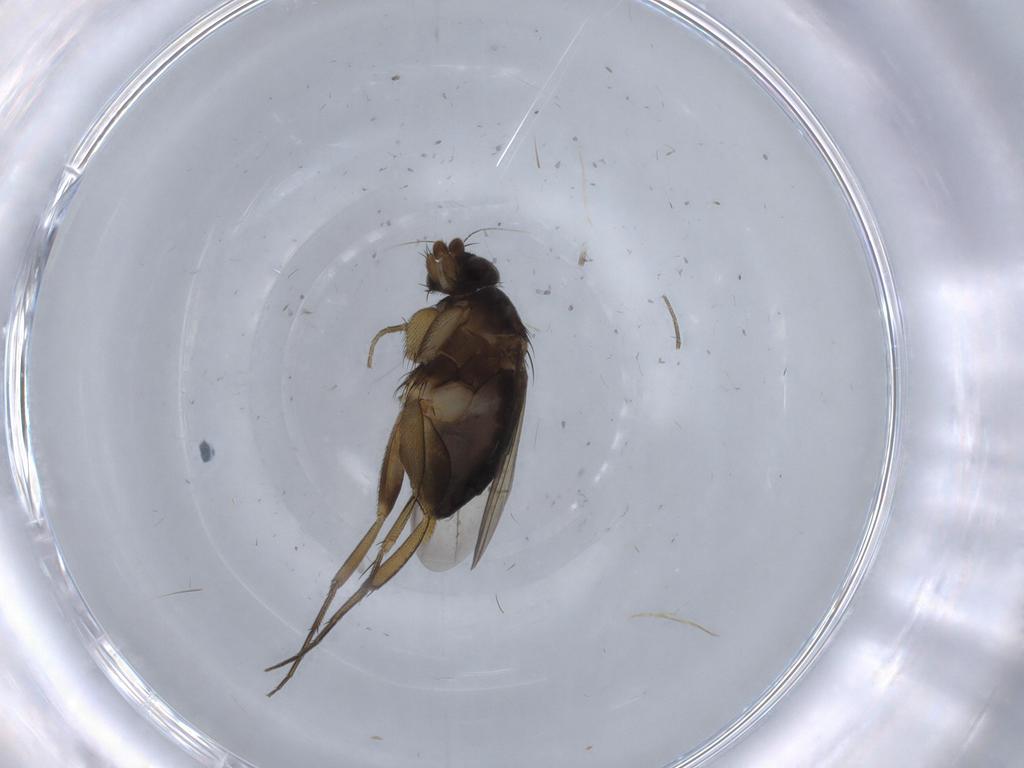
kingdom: Animalia
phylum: Arthropoda
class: Insecta
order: Diptera
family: Phoridae
